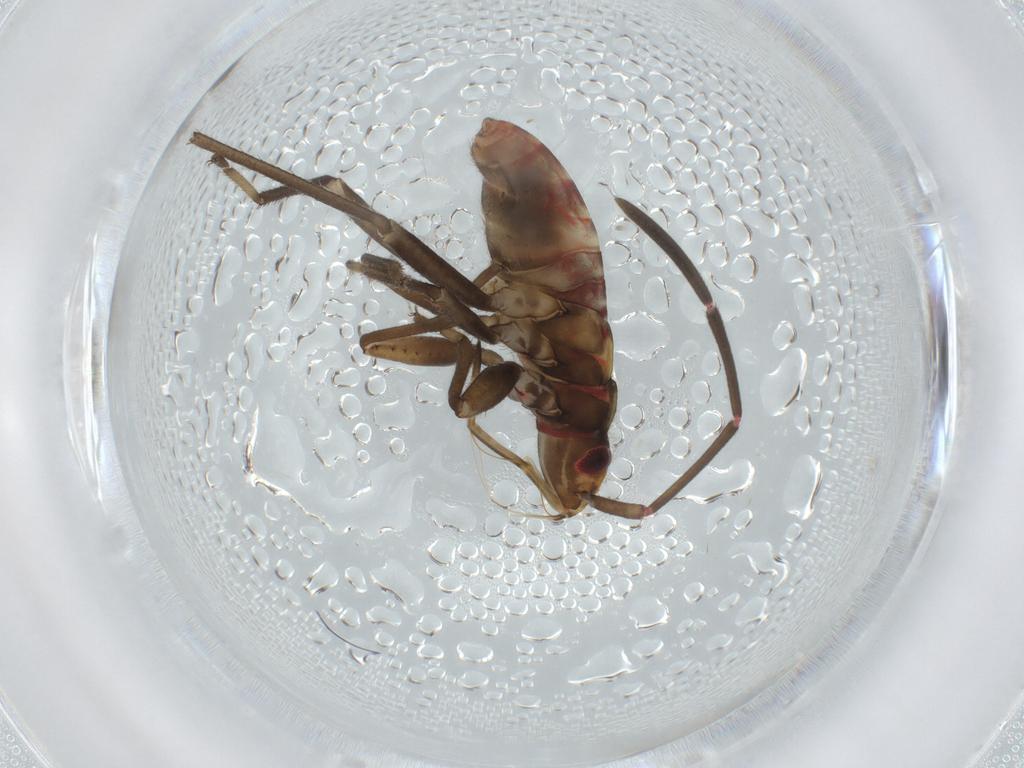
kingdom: Animalia
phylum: Arthropoda
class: Insecta
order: Hemiptera
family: Rhyparochromidae
